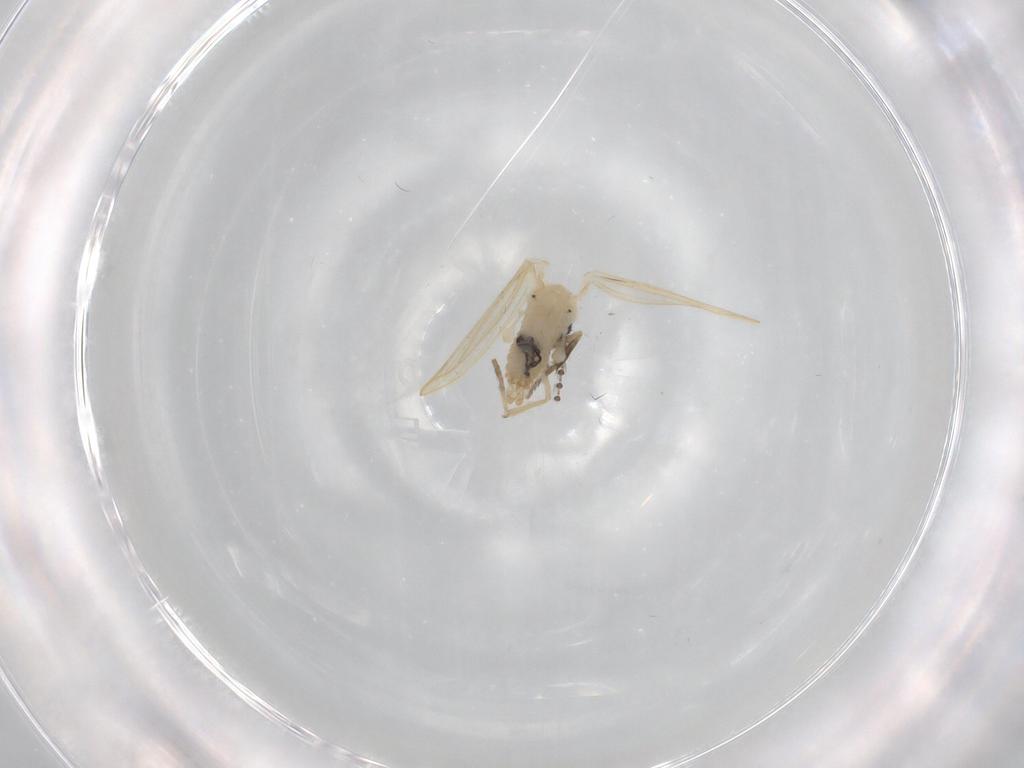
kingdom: Animalia
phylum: Arthropoda
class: Insecta
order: Diptera
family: Psychodidae
